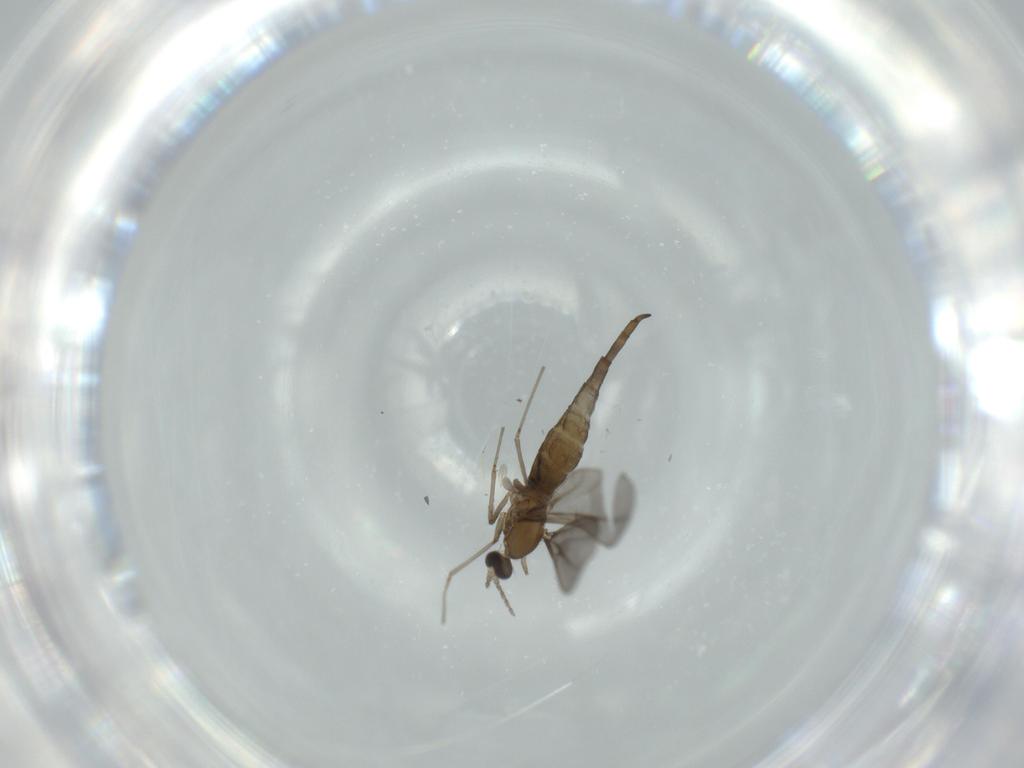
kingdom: Animalia
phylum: Arthropoda
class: Insecta
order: Diptera
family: Cecidomyiidae
